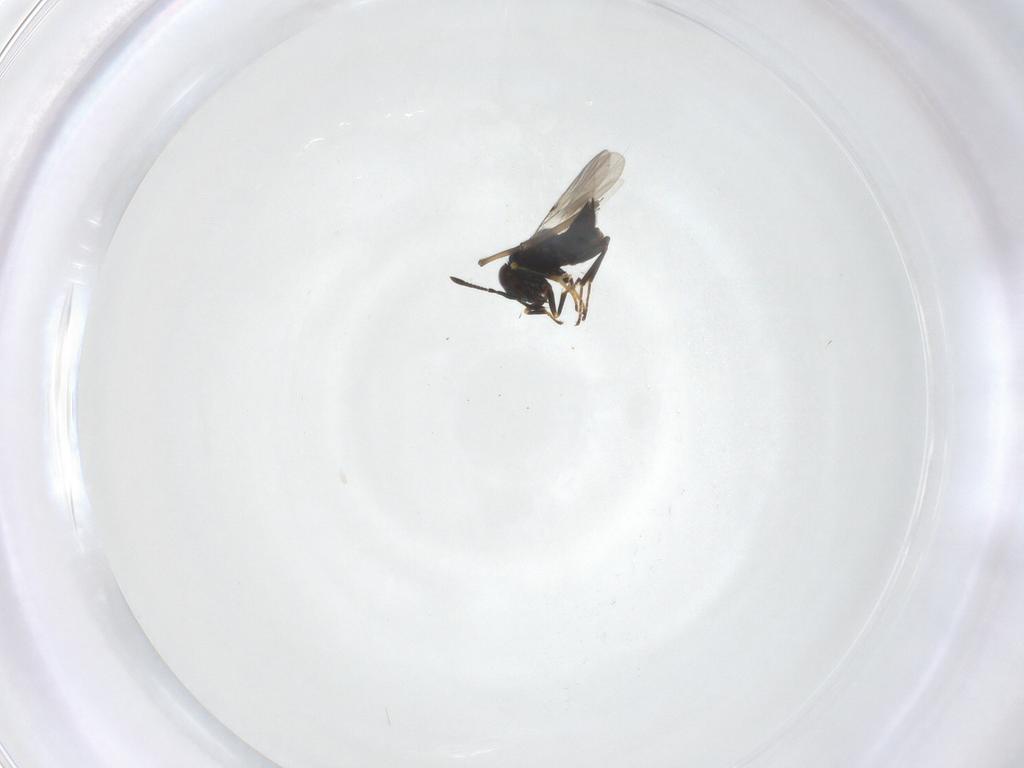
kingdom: Animalia
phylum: Arthropoda
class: Insecta
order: Hymenoptera
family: Encyrtidae
